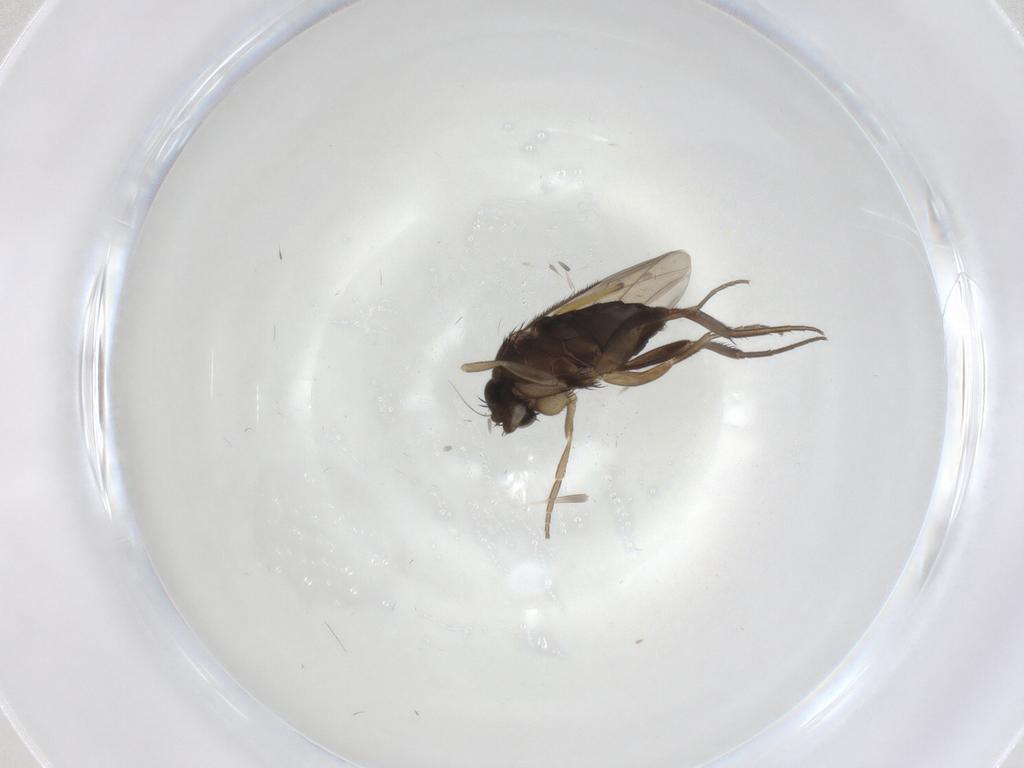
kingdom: Animalia
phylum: Arthropoda
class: Insecta
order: Diptera
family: Phoridae
